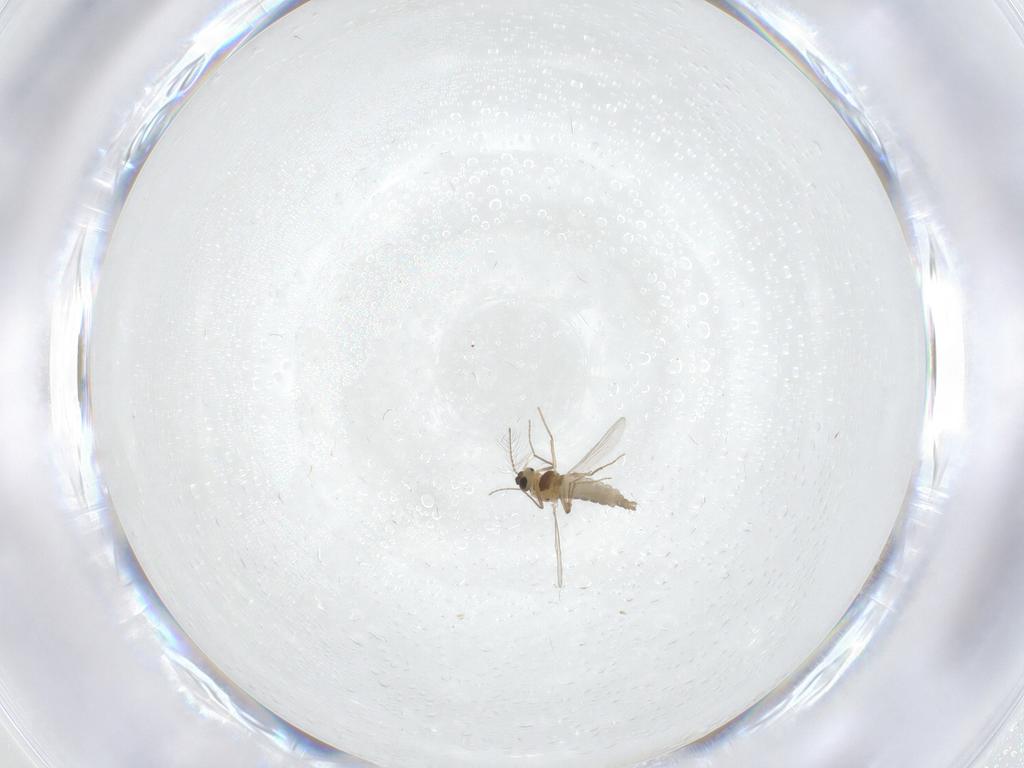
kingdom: Animalia
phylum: Arthropoda
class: Insecta
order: Diptera
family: Chironomidae
